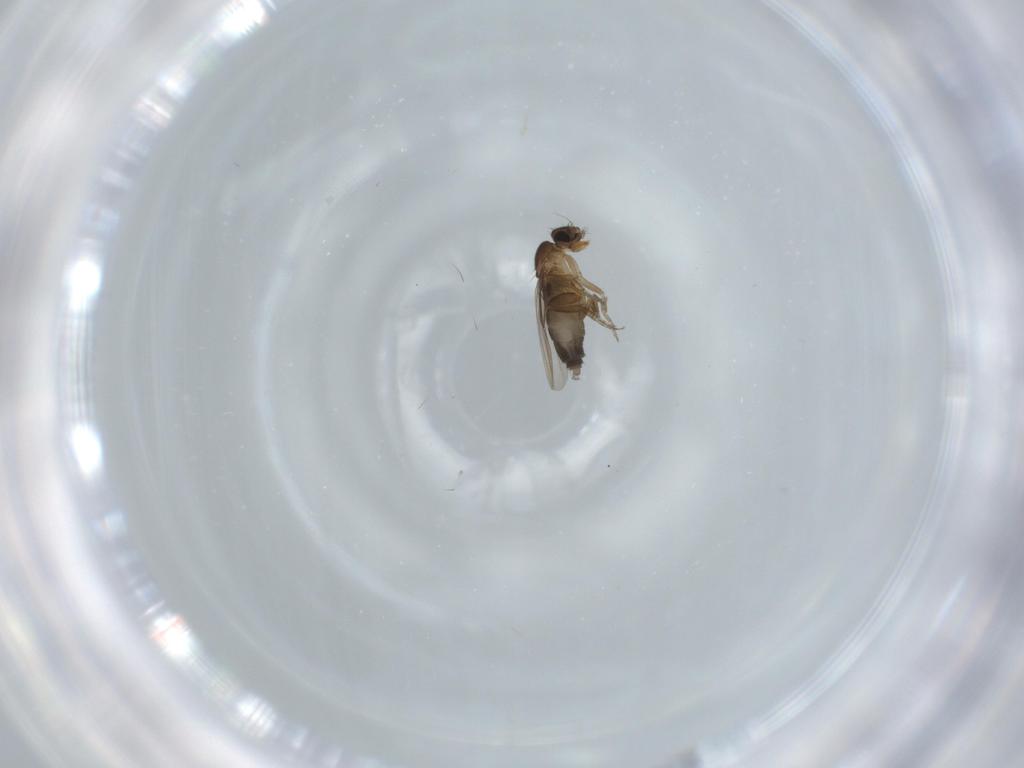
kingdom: Animalia
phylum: Arthropoda
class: Insecta
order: Diptera
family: Phoridae
